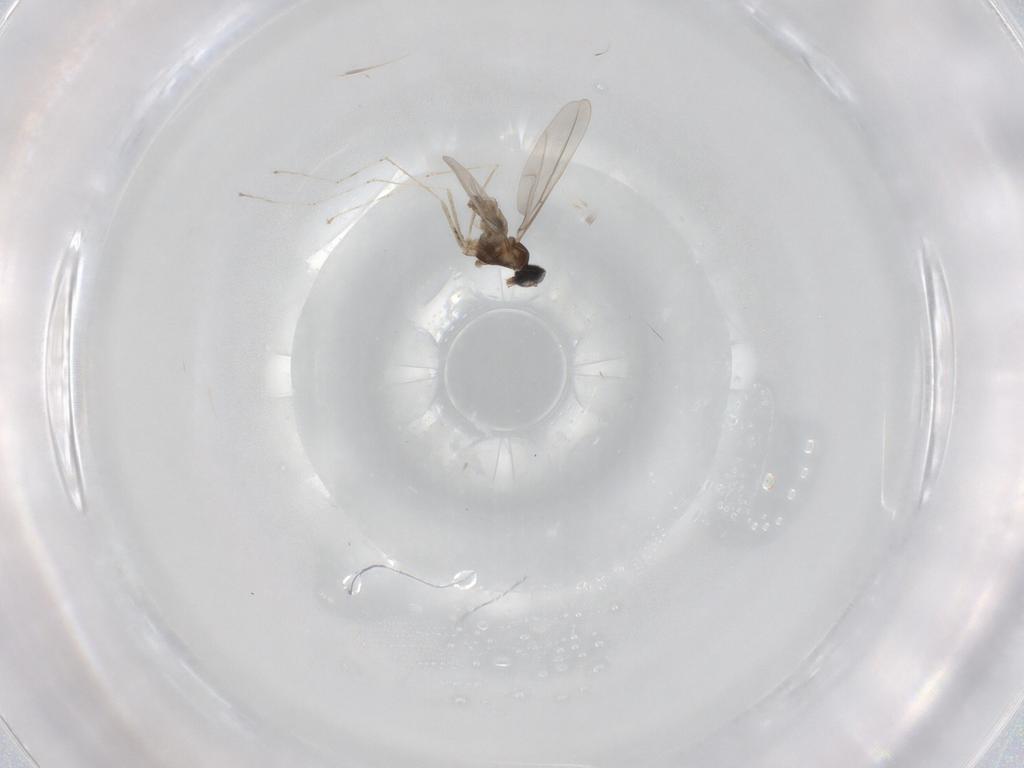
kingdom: Animalia
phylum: Arthropoda
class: Insecta
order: Diptera
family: Cecidomyiidae
